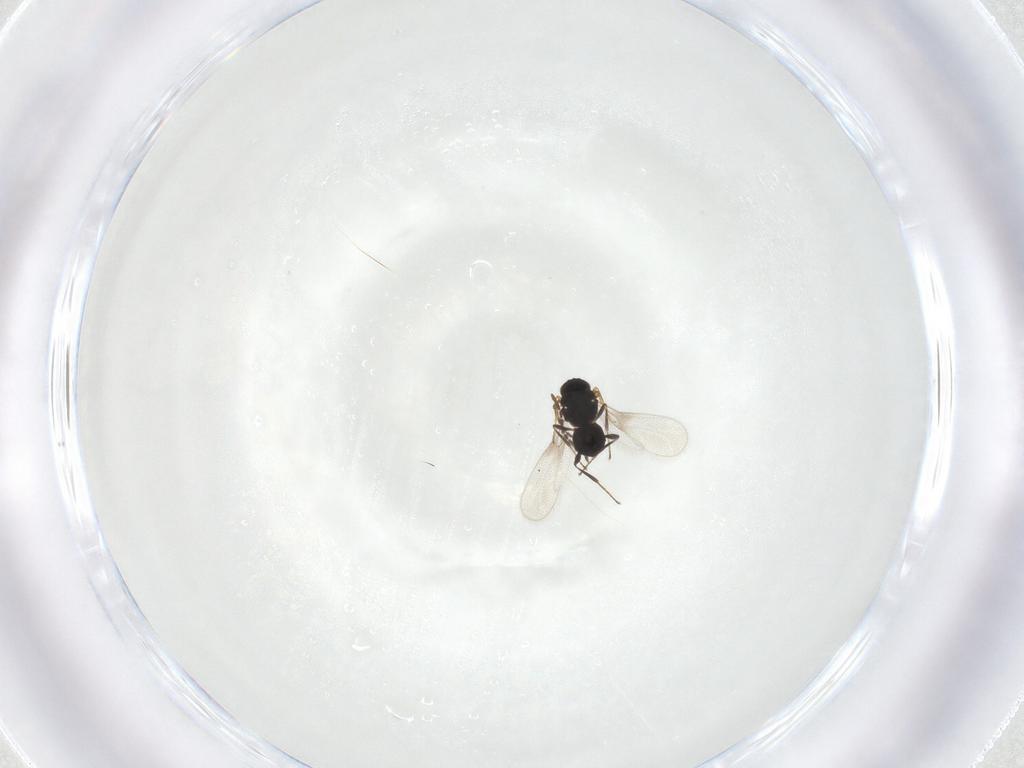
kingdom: Animalia
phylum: Arthropoda
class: Insecta
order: Hymenoptera
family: Platygastridae
